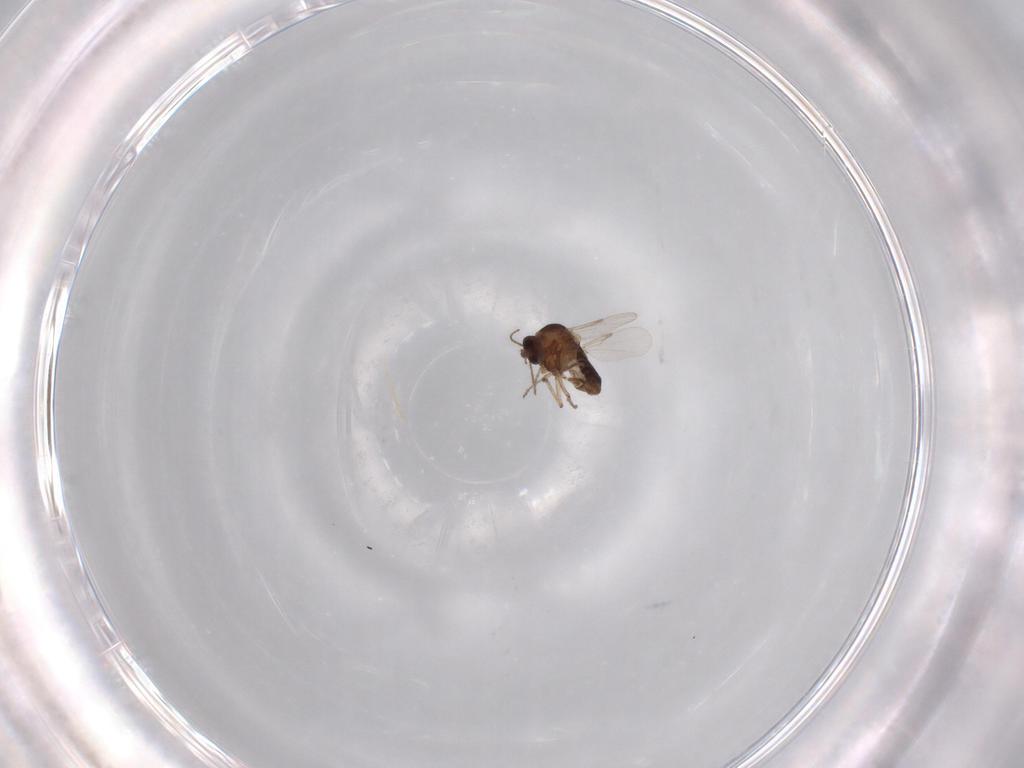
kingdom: Animalia
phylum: Arthropoda
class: Insecta
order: Diptera
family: Ceratopogonidae
